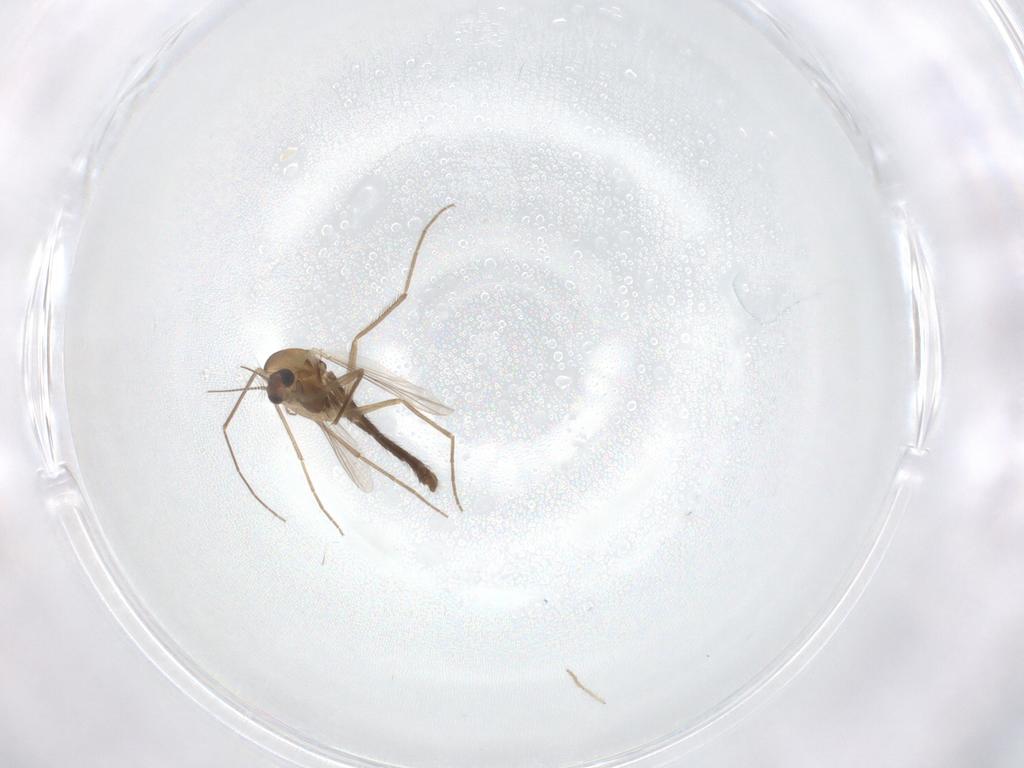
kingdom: Animalia
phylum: Arthropoda
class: Insecta
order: Diptera
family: Chironomidae
